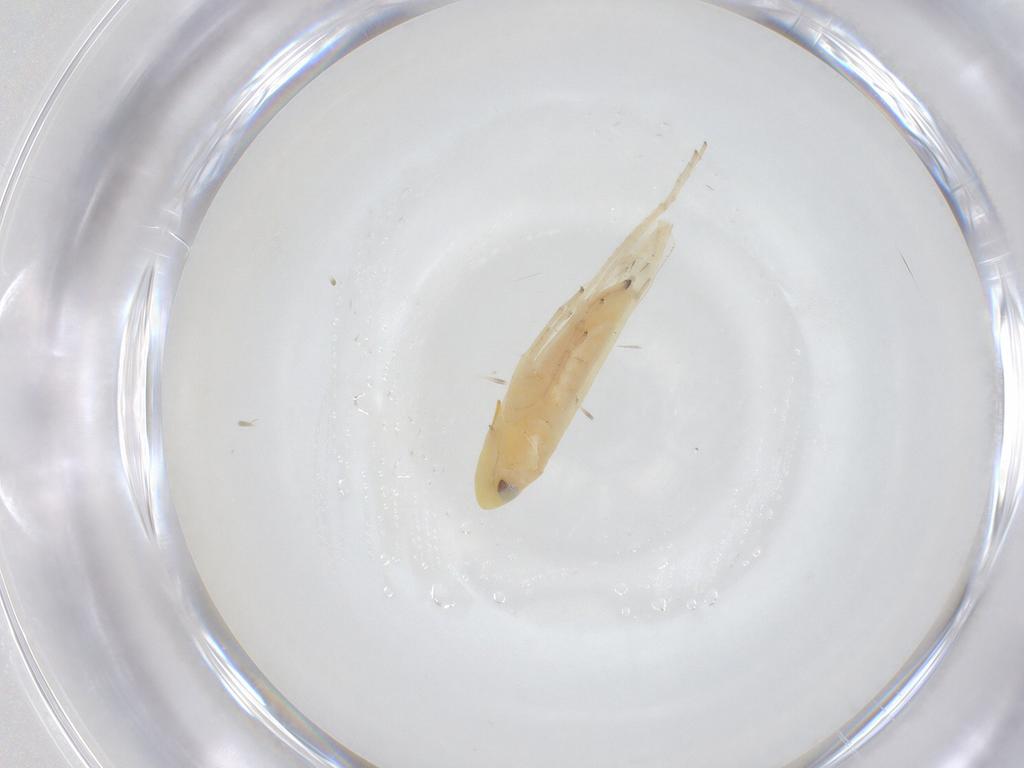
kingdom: Animalia
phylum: Arthropoda
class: Insecta
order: Hemiptera
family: Cicadellidae
